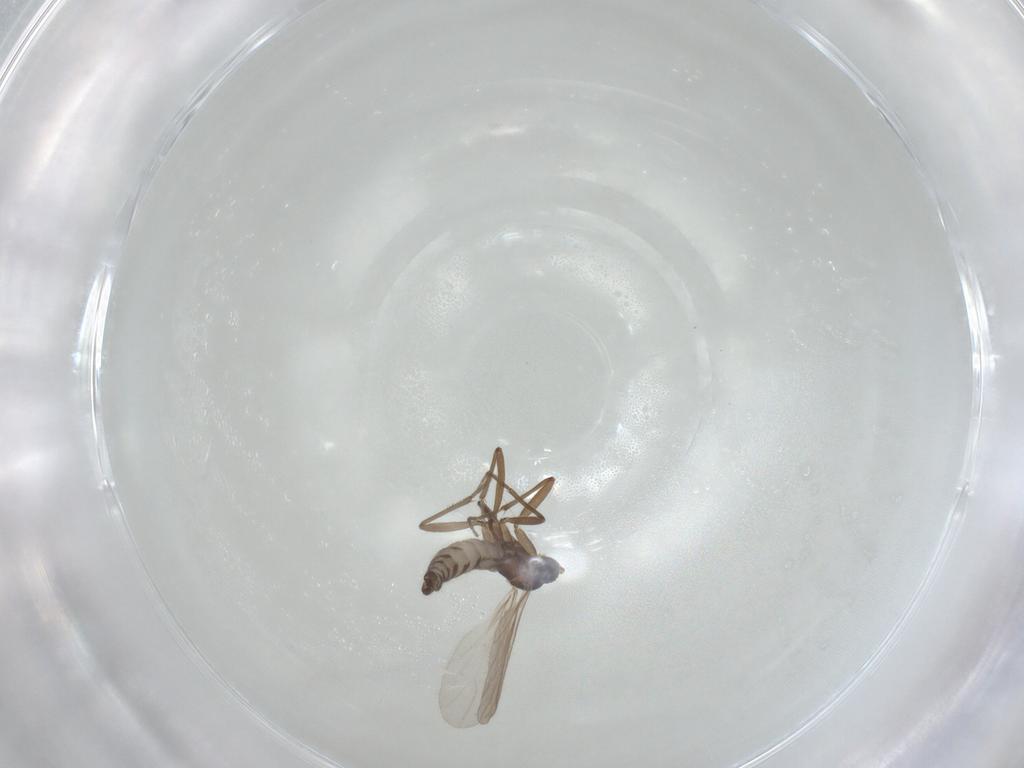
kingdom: Animalia
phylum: Arthropoda
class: Insecta
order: Diptera
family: Sciaridae
